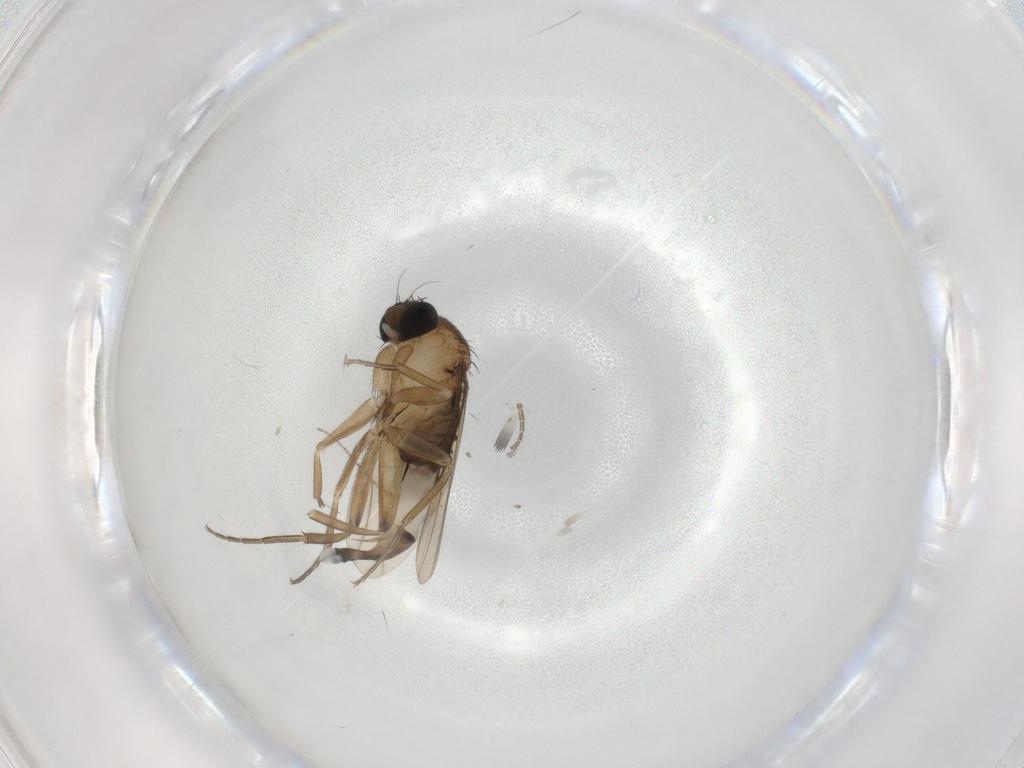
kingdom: Animalia
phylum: Arthropoda
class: Insecta
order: Diptera
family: Phoridae
